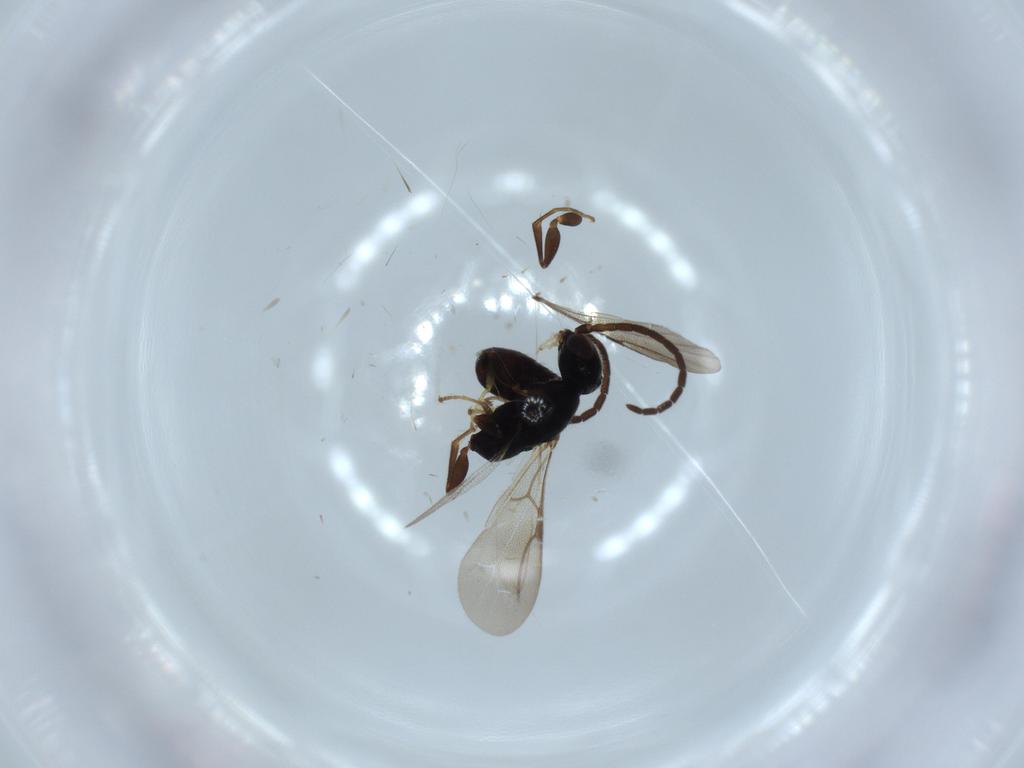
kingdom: Animalia
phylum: Arthropoda
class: Insecta
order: Hymenoptera
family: Bethylidae
